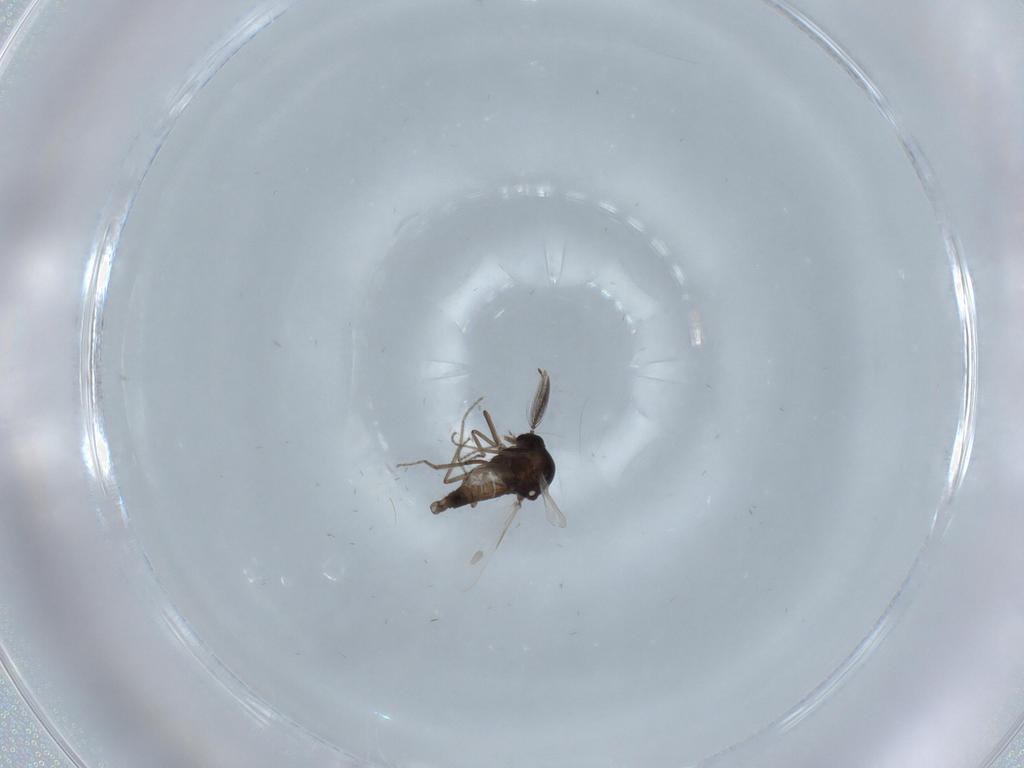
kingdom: Animalia
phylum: Arthropoda
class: Insecta
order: Diptera
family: Ceratopogonidae
